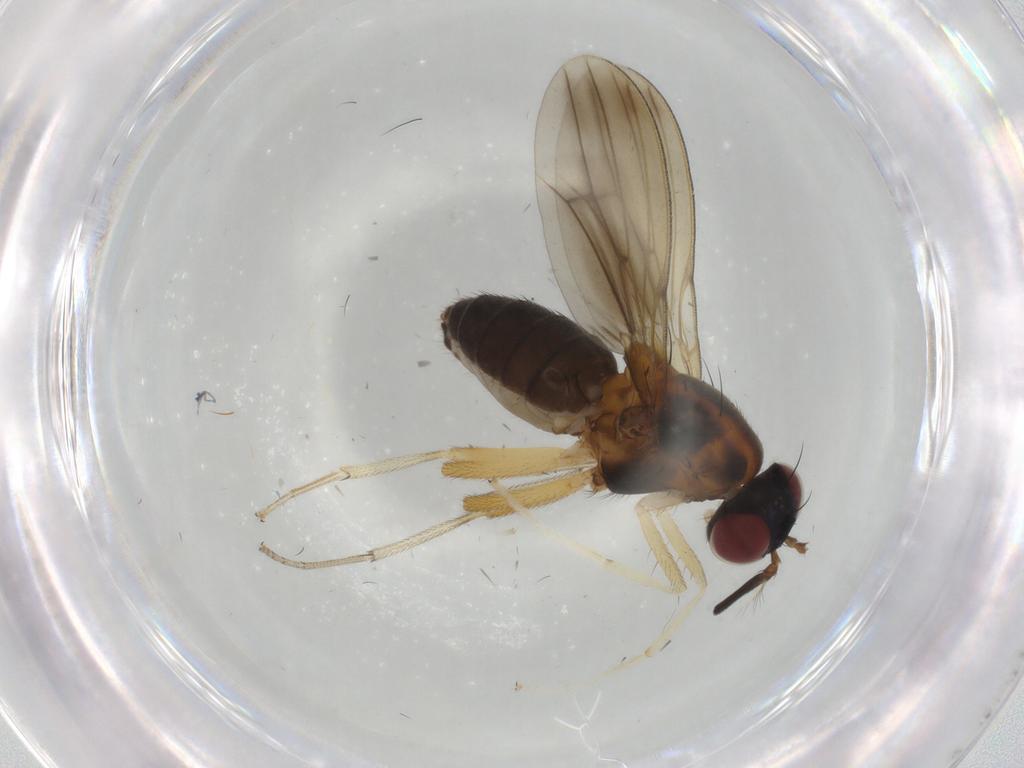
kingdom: Animalia
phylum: Arthropoda
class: Insecta
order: Diptera
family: Lauxaniidae
